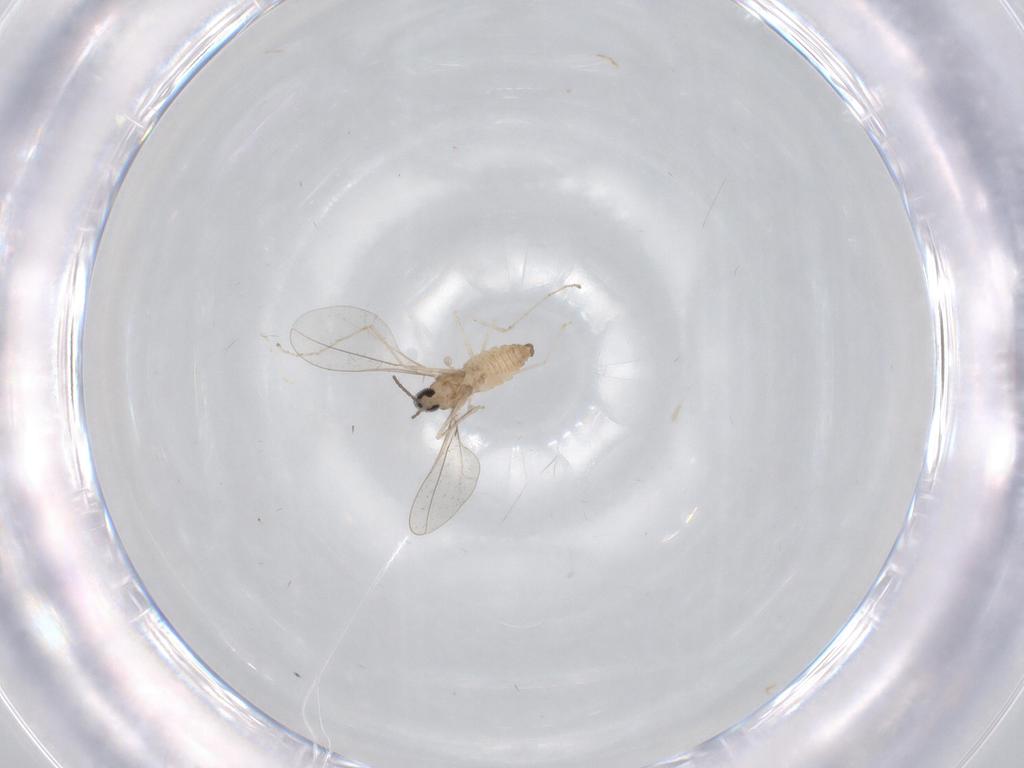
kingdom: Animalia
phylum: Arthropoda
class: Insecta
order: Diptera
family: Cecidomyiidae
